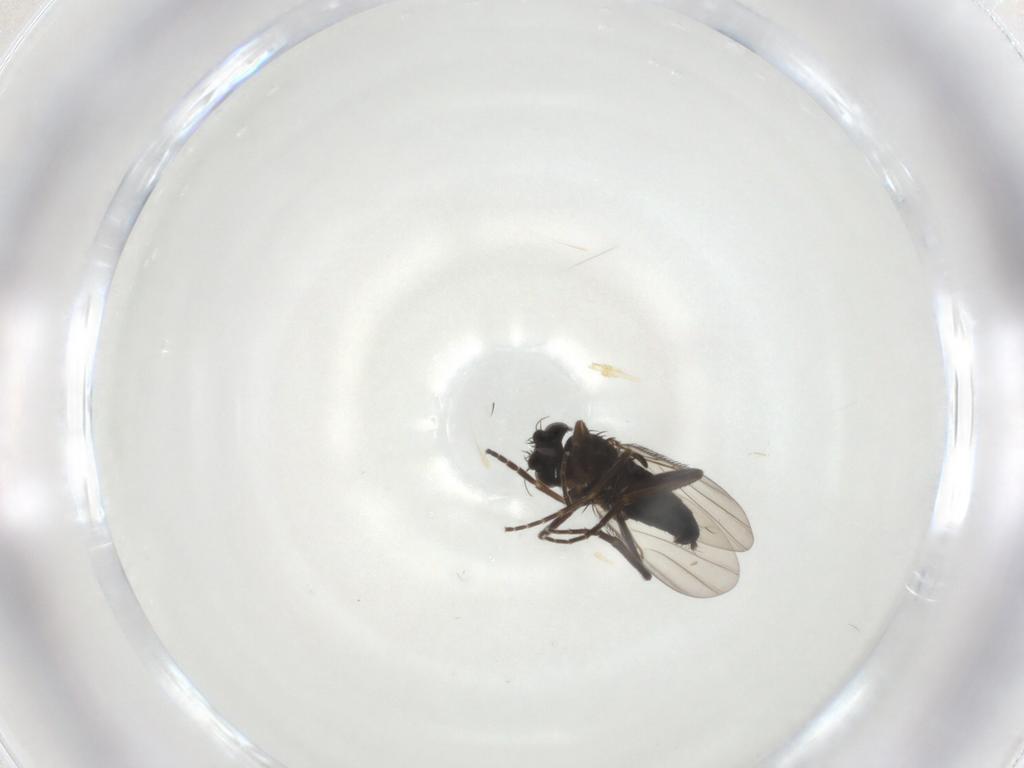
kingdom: Animalia
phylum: Arthropoda
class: Insecta
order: Diptera
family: Phoridae
